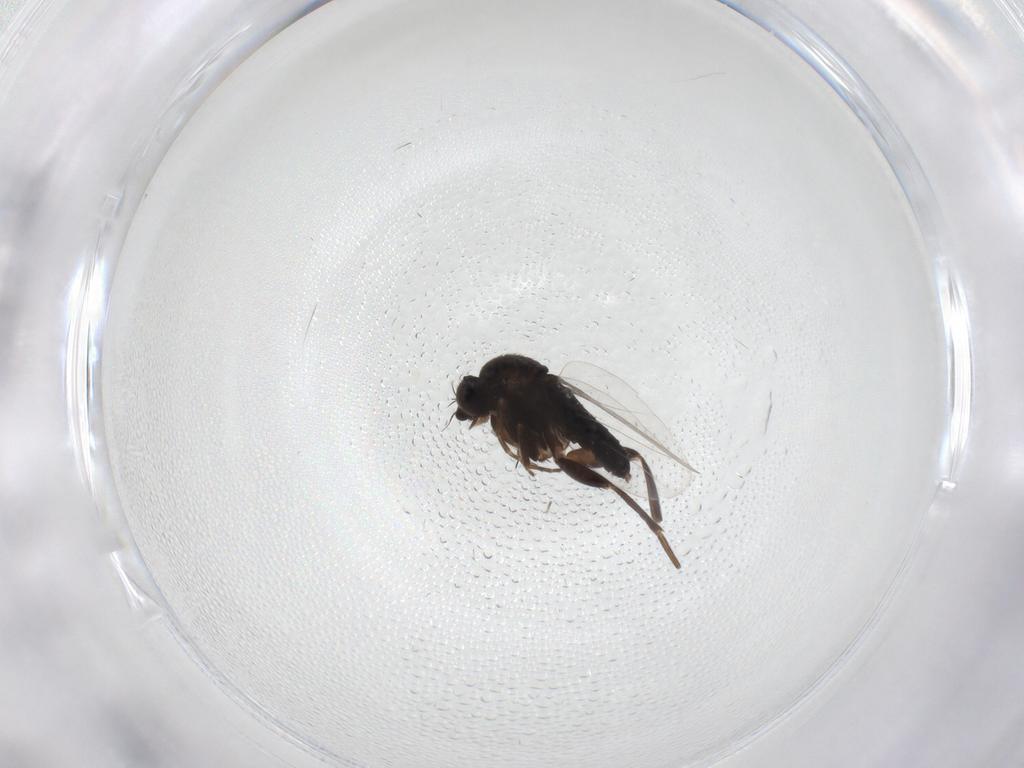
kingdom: Animalia
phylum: Arthropoda
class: Insecta
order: Diptera
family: Phoridae
